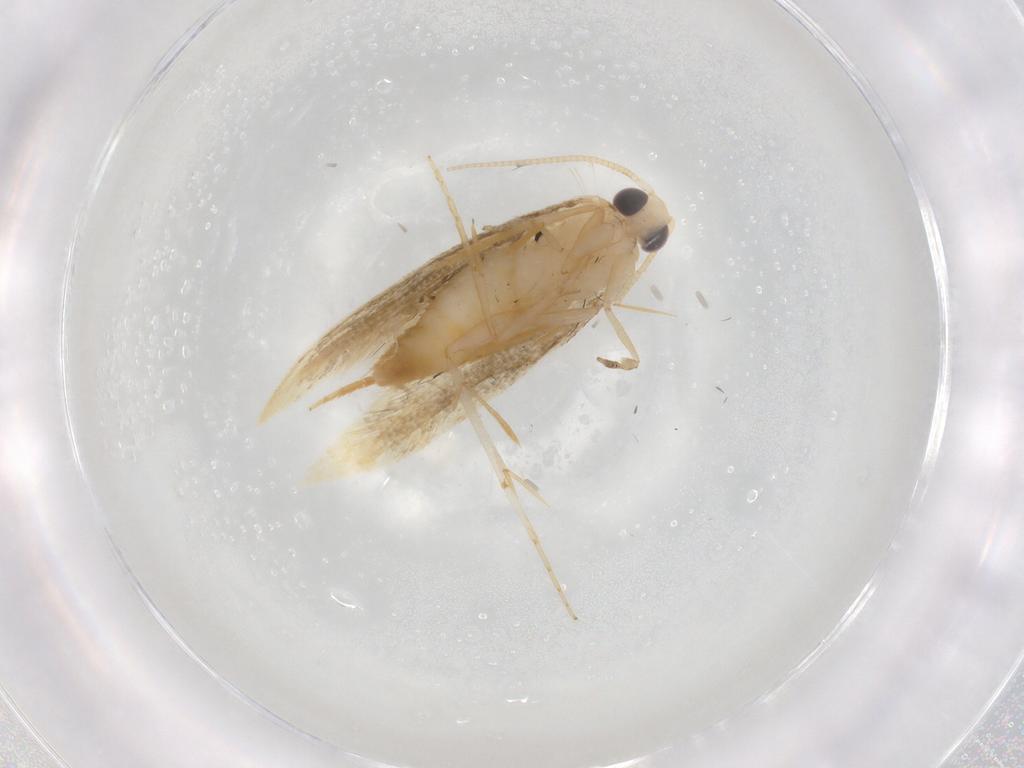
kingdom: Animalia
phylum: Arthropoda
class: Insecta
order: Lepidoptera
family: Tineidae
